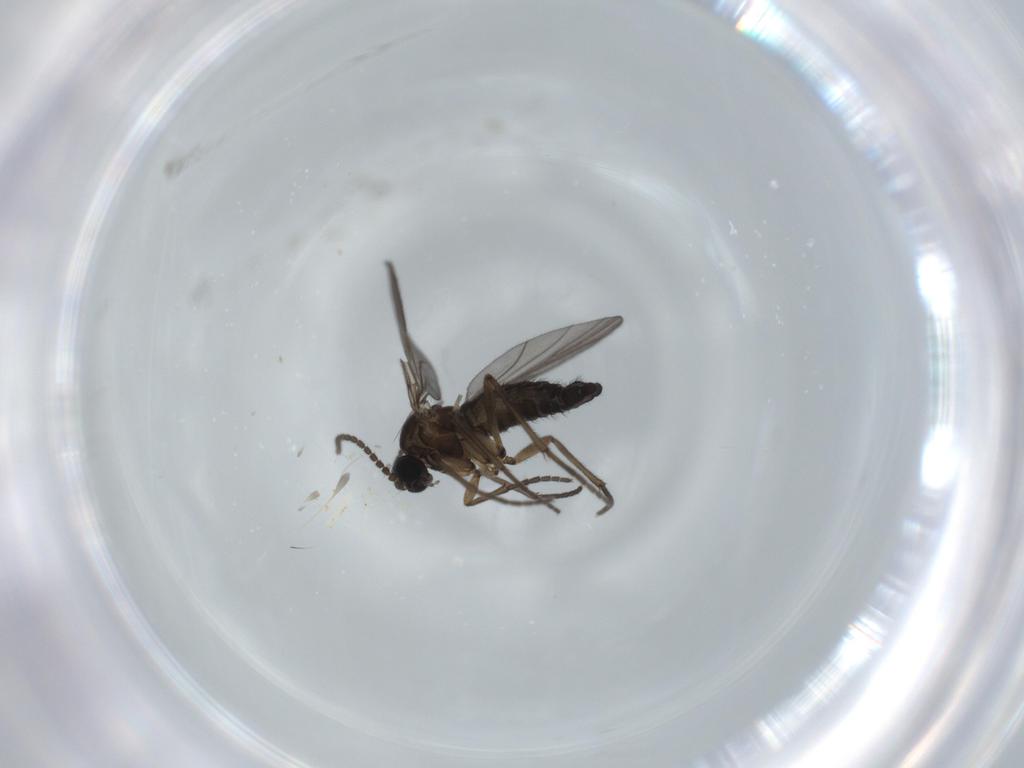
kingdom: Animalia
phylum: Arthropoda
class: Insecta
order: Diptera
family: Sciaridae
